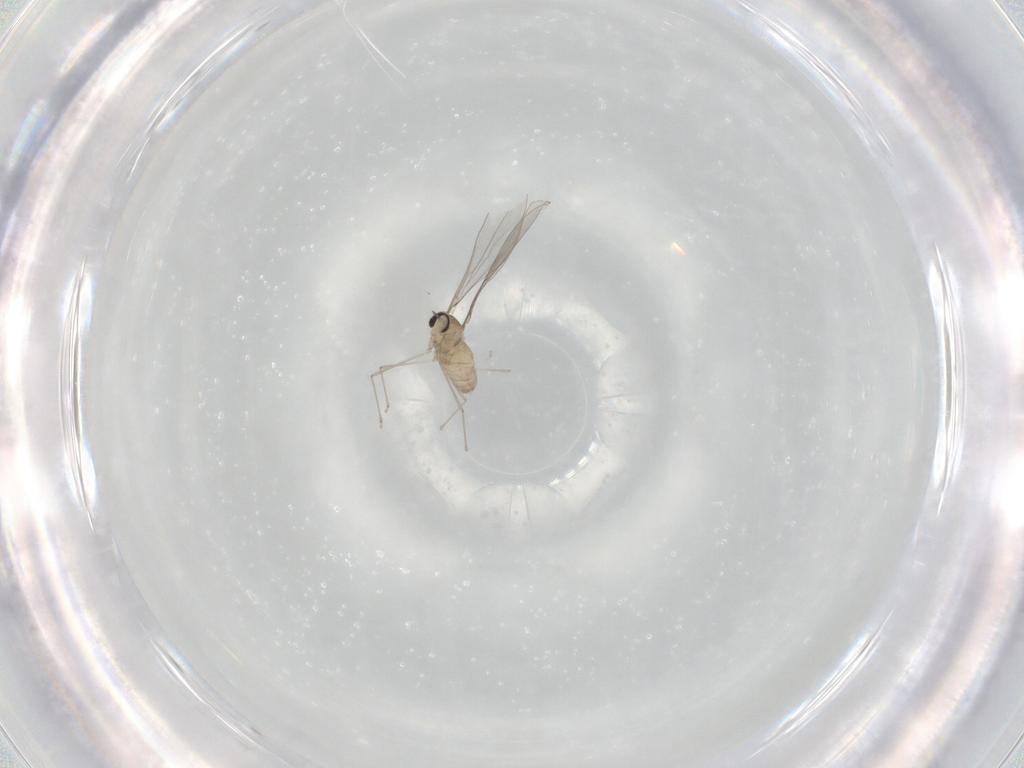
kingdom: Animalia
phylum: Arthropoda
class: Insecta
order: Diptera
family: Cecidomyiidae
